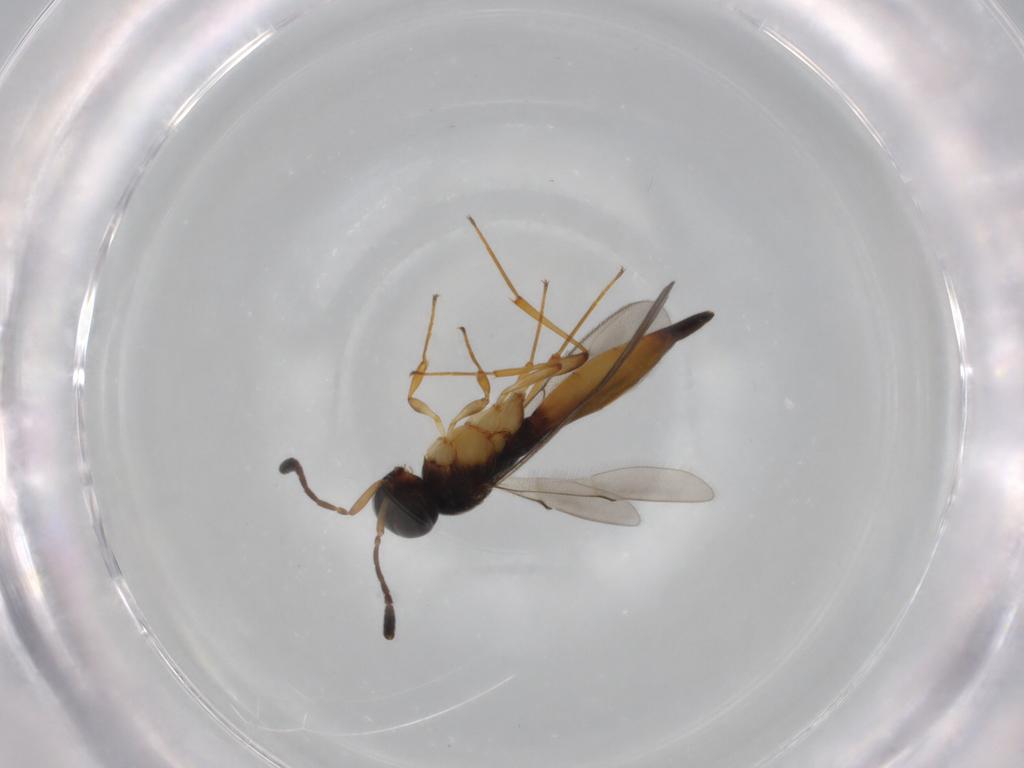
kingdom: Animalia
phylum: Arthropoda
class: Insecta
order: Hymenoptera
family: Scelionidae
